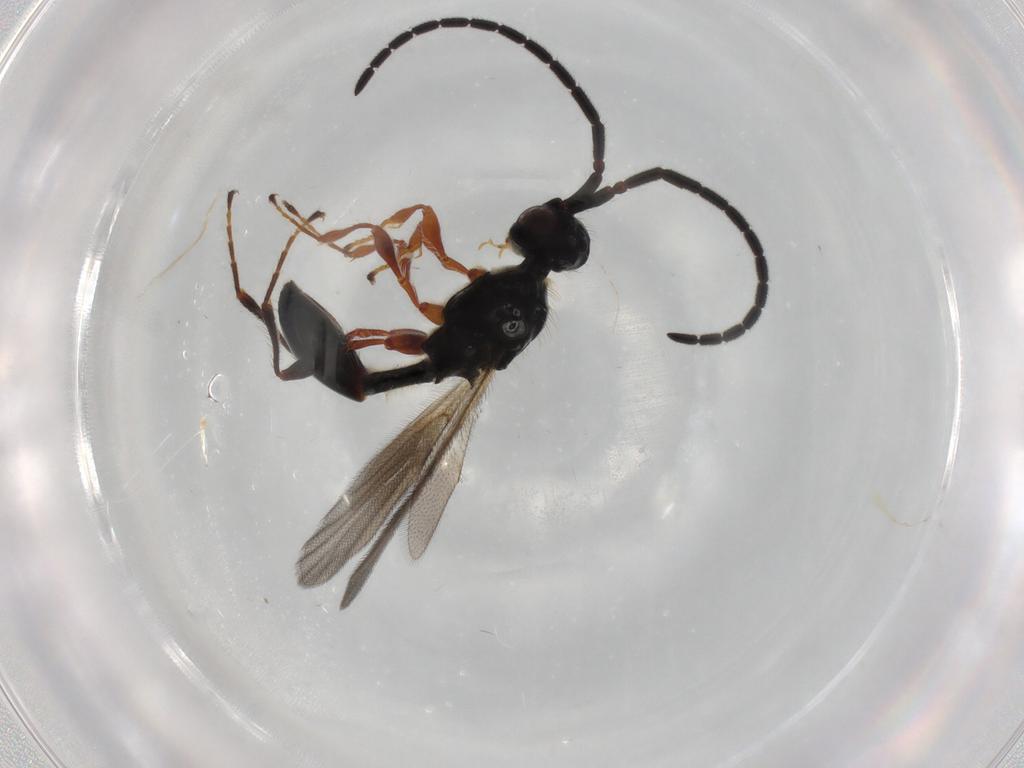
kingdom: Animalia
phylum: Arthropoda
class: Insecta
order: Hymenoptera
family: Diapriidae
